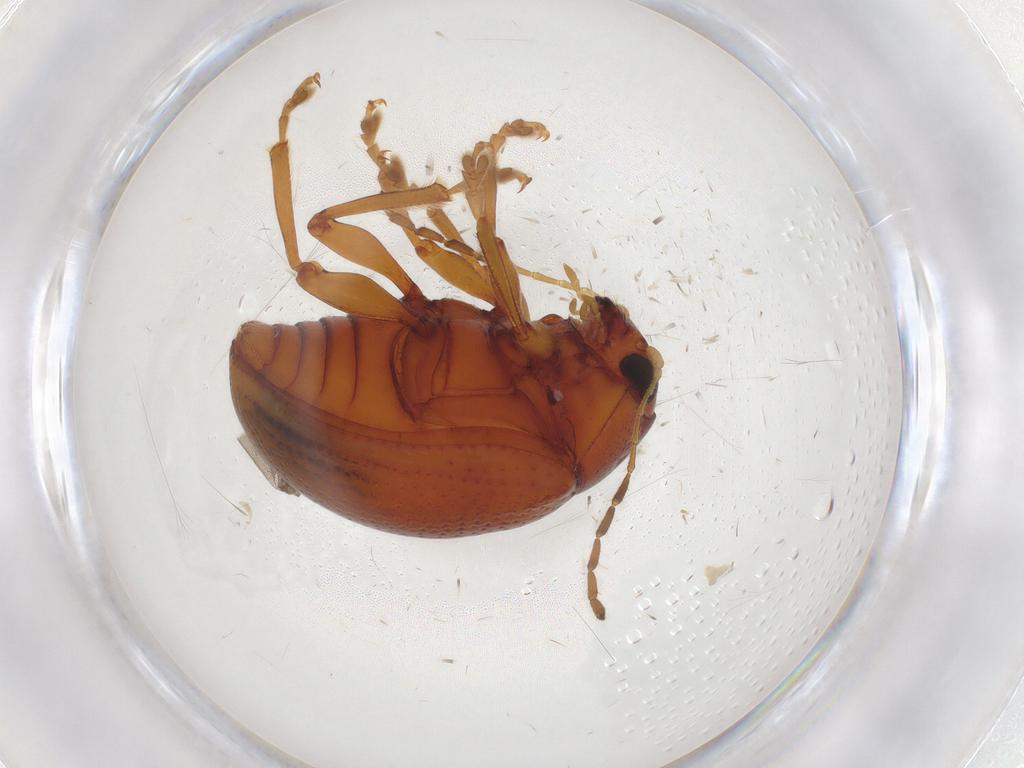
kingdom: Animalia
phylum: Arthropoda
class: Insecta
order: Coleoptera
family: Chrysomelidae
